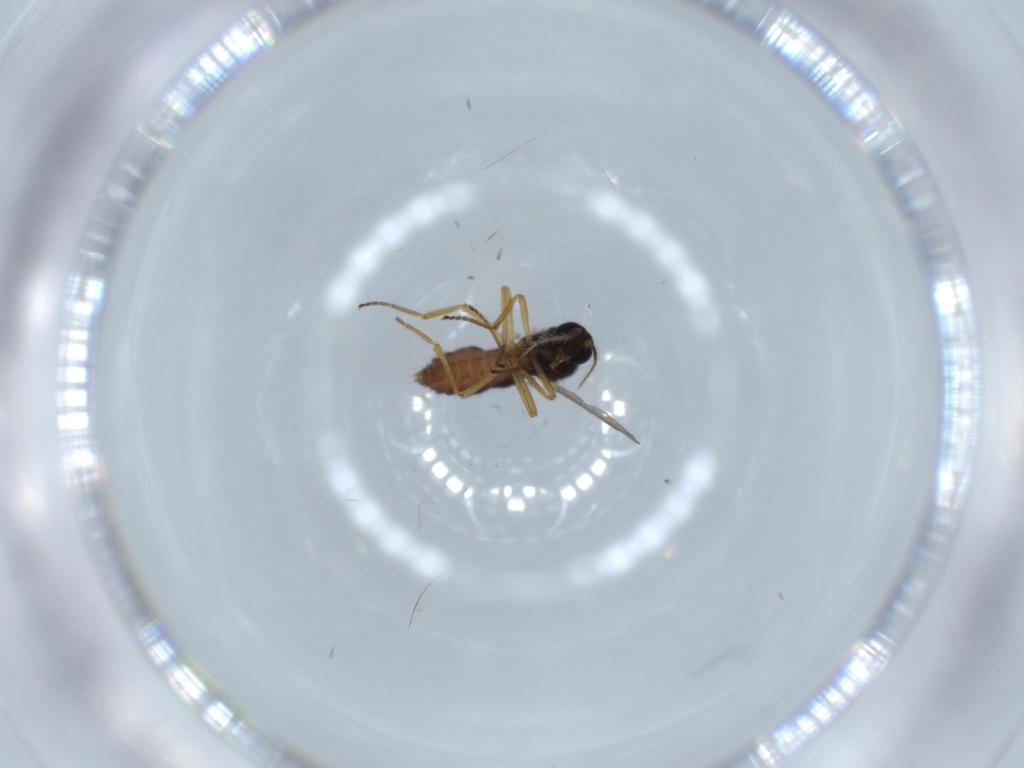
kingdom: Animalia
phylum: Arthropoda
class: Insecta
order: Diptera
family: Ceratopogonidae
